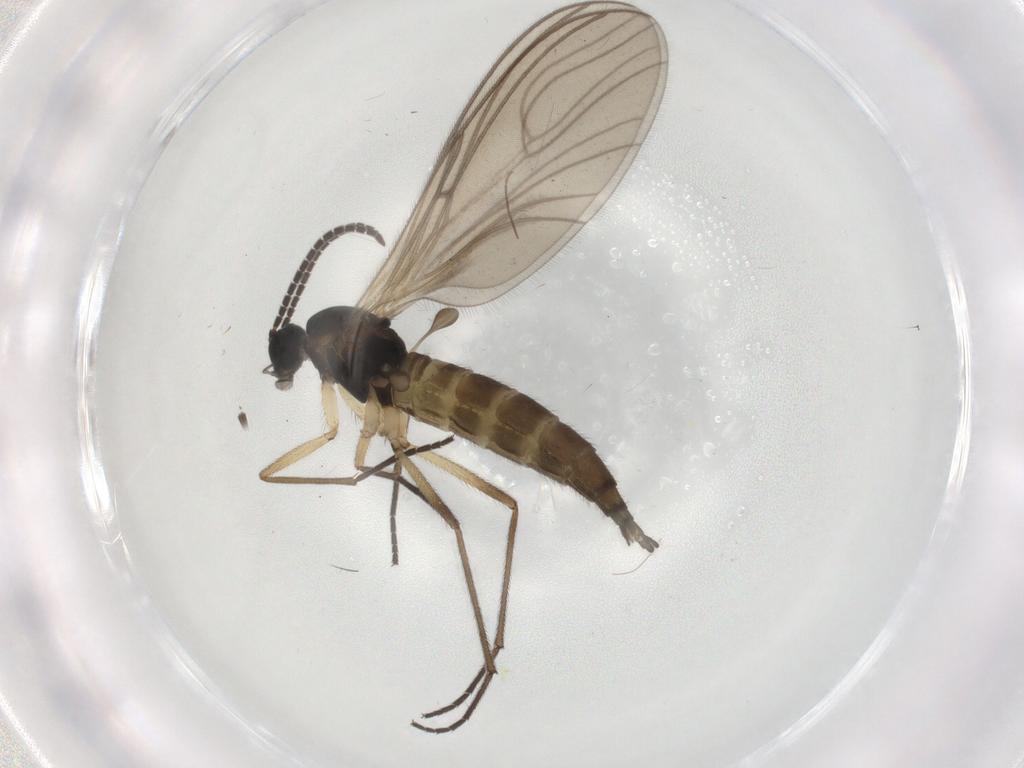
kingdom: Animalia
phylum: Arthropoda
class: Insecta
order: Diptera
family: Sciaridae
